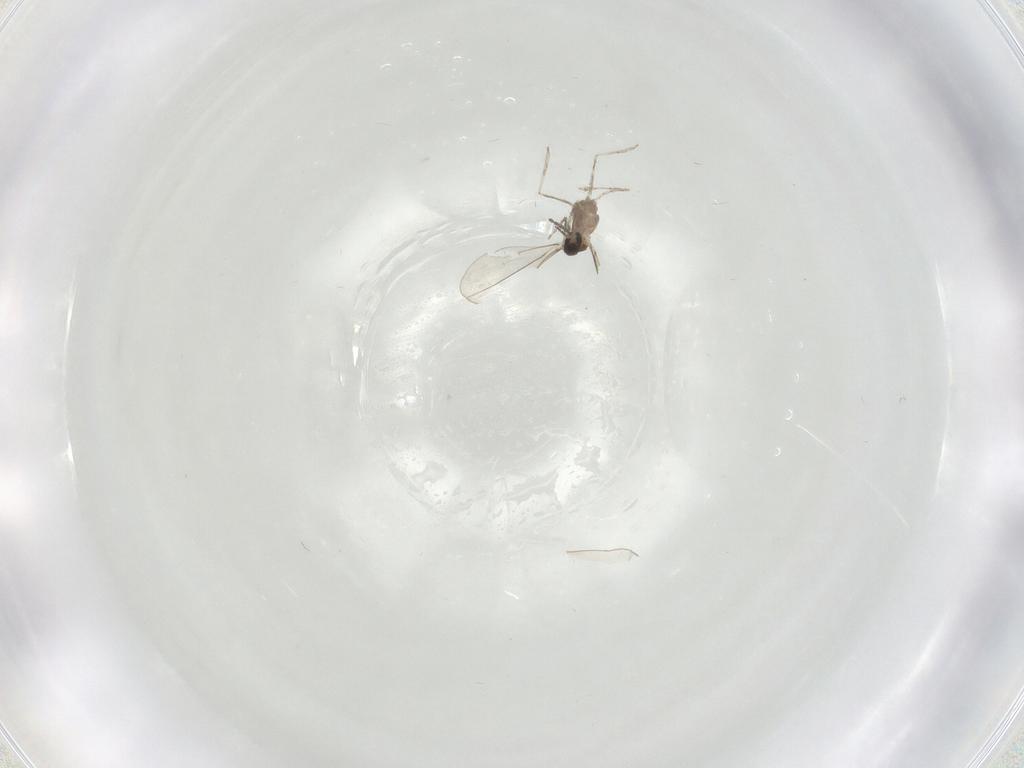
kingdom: Animalia
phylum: Arthropoda
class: Insecta
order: Diptera
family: Cecidomyiidae
